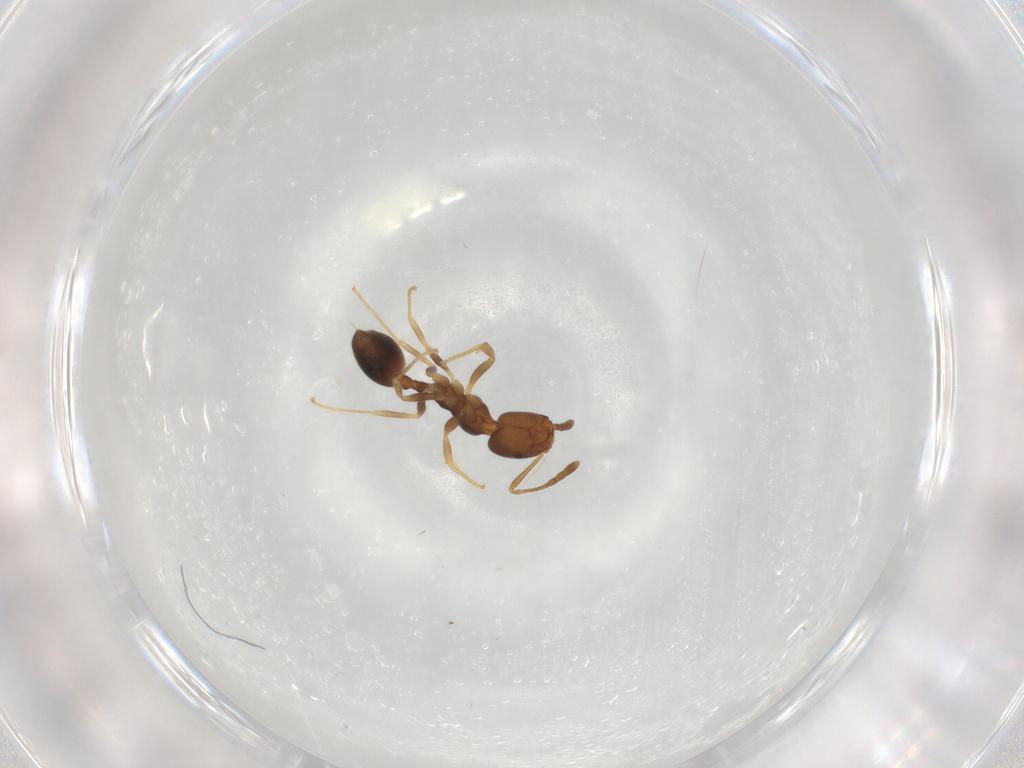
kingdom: Animalia
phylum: Arthropoda
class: Insecta
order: Hymenoptera
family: Formicidae
